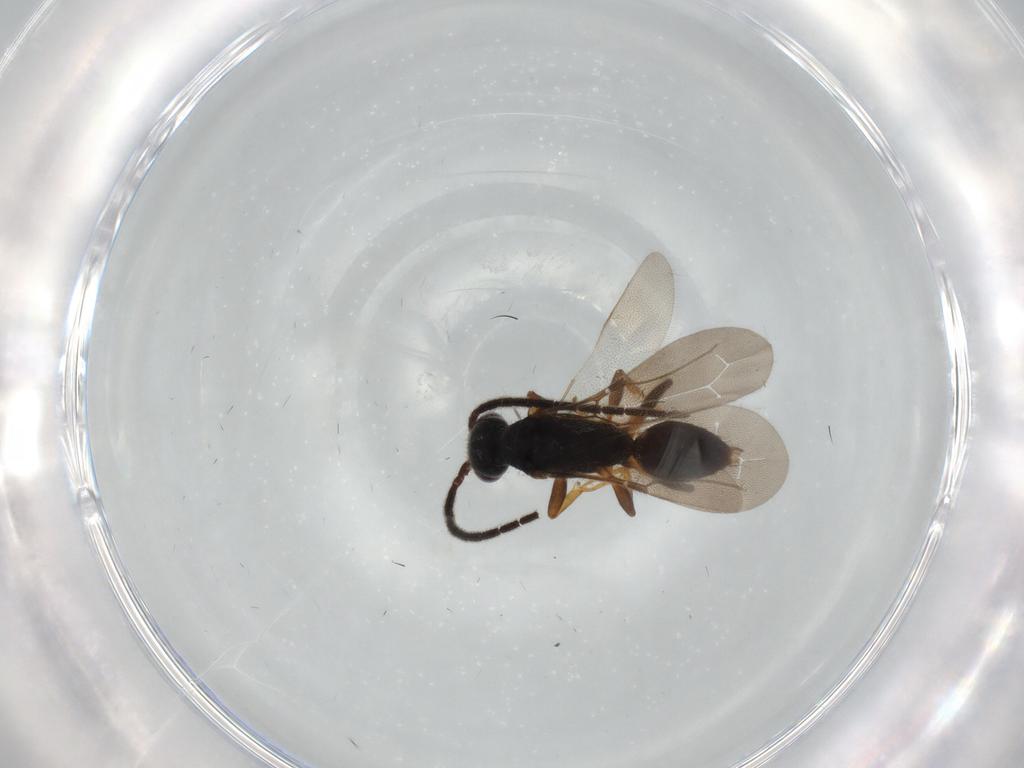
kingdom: Animalia
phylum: Arthropoda
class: Insecta
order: Hymenoptera
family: Bethylidae
